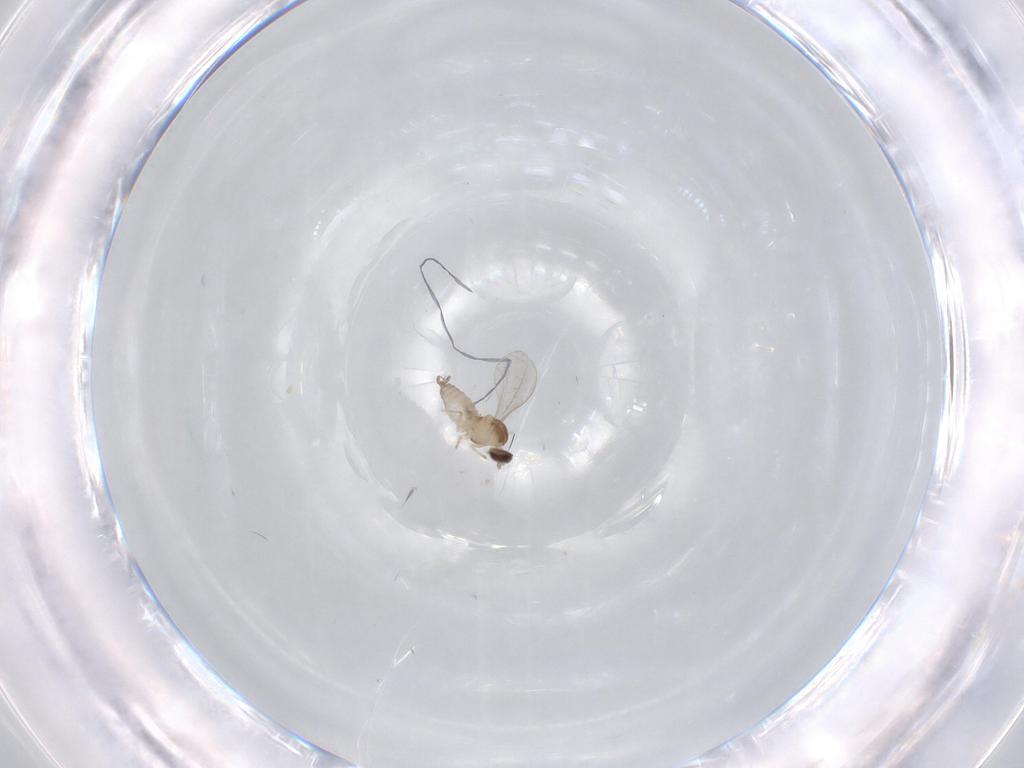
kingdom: Animalia
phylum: Arthropoda
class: Insecta
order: Diptera
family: Cecidomyiidae
